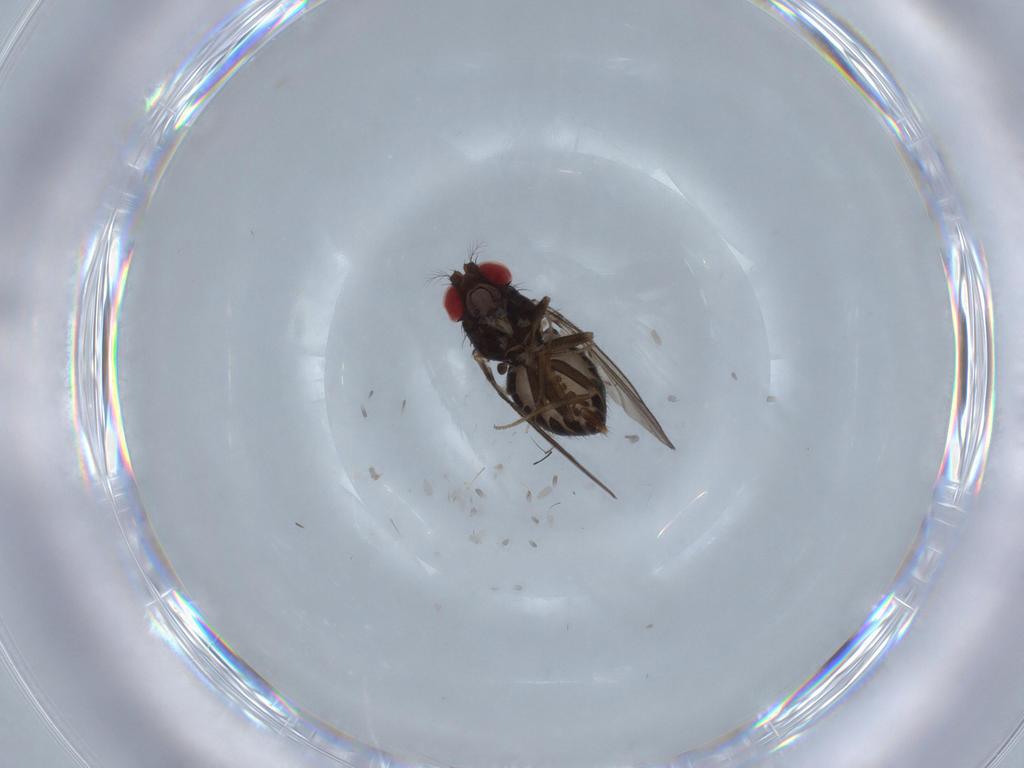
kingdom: Animalia
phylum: Arthropoda
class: Insecta
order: Diptera
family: Drosophilidae
